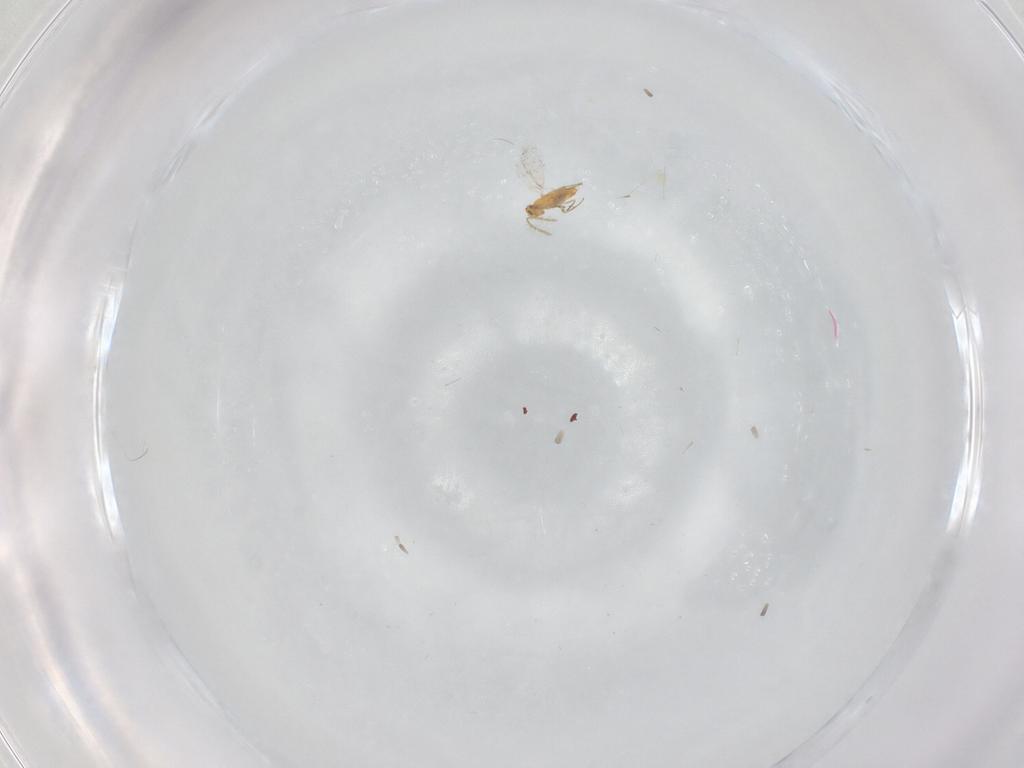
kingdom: Animalia
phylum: Arthropoda
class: Insecta
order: Hymenoptera
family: Aphelinidae
